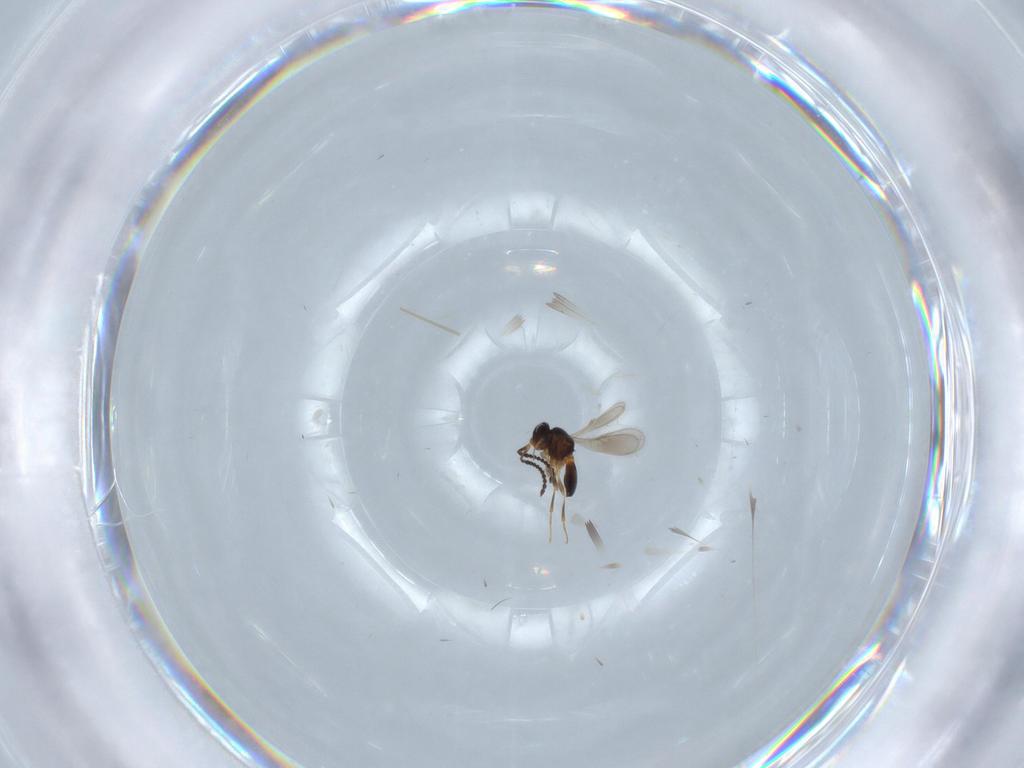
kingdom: Animalia
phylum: Arthropoda
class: Insecta
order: Hymenoptera
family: Scelionidae
